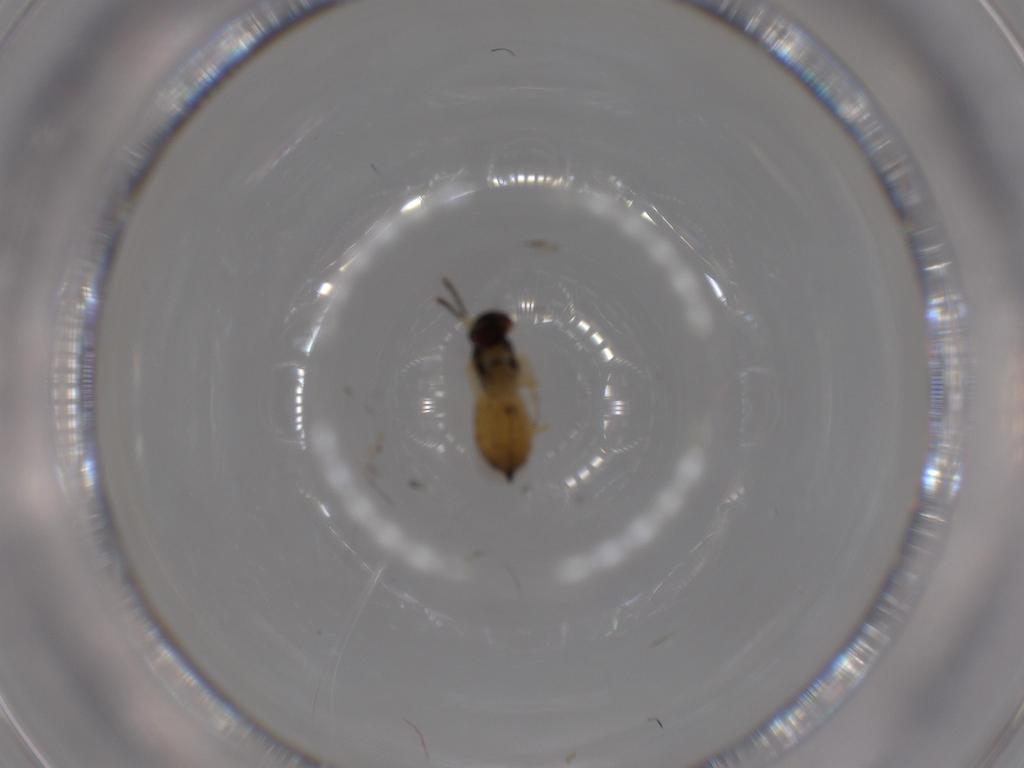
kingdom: Animalia
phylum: Arthropoda
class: Insecta
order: Hymenoptera
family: Eulophidae
